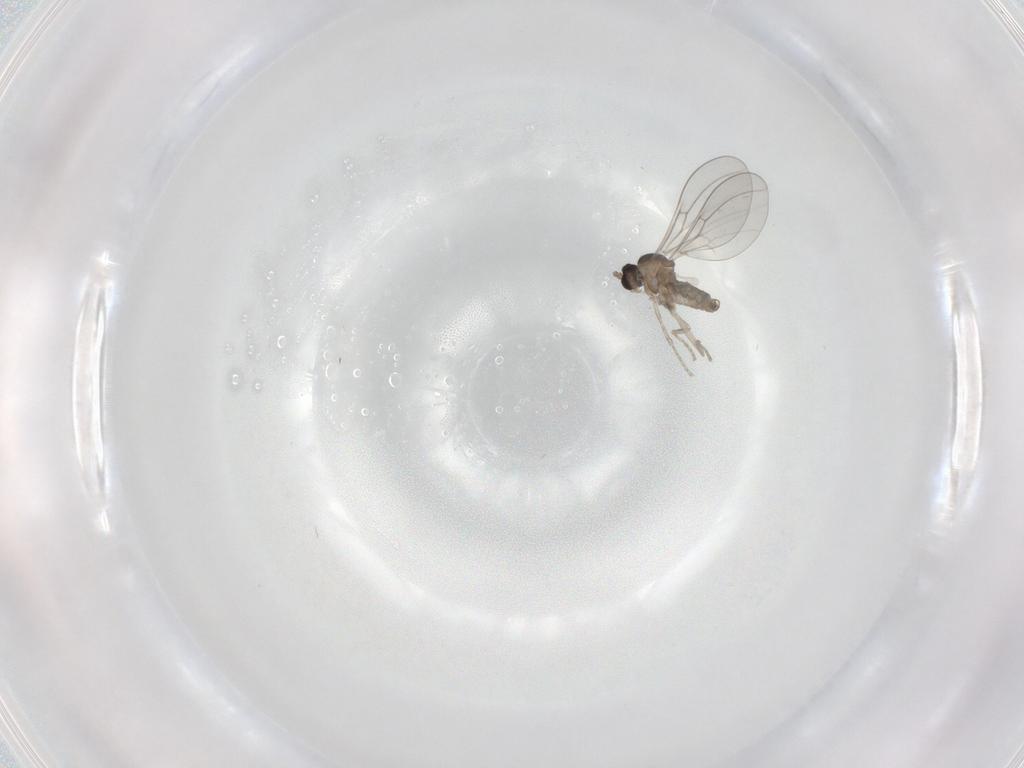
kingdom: Animalia
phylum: Arthropoda
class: Insecta
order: Diptera
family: Cecidomyiidae
